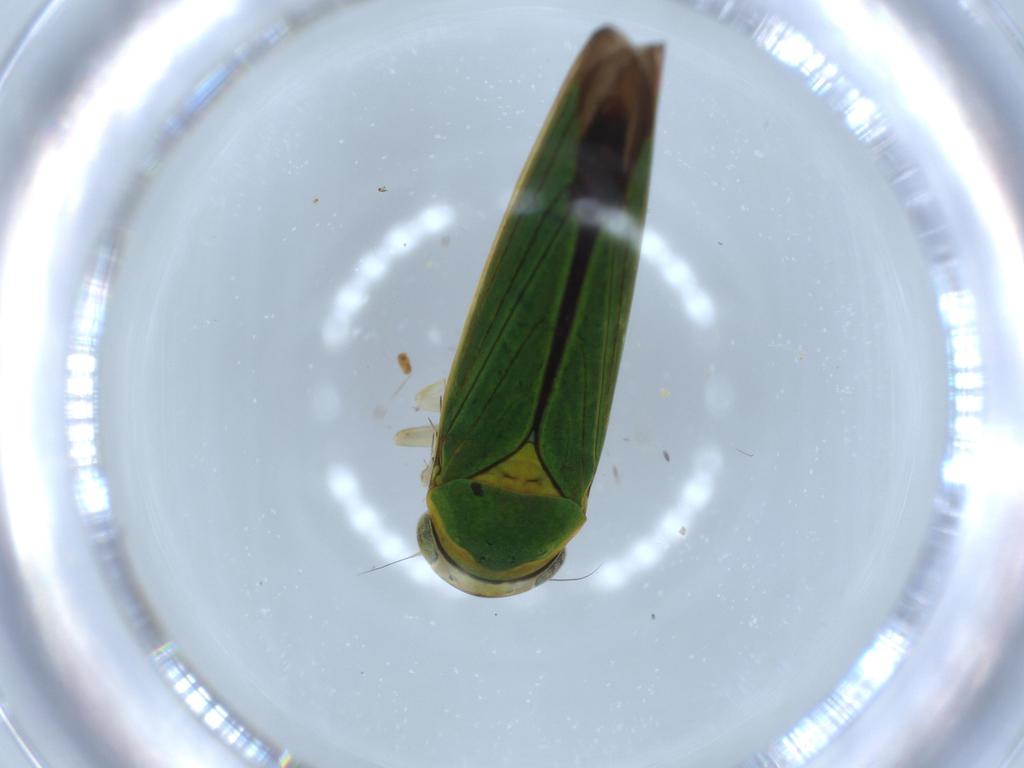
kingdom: Animalia
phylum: Arthropoda
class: Insecta
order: Hemiptera
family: Cicadellidae
